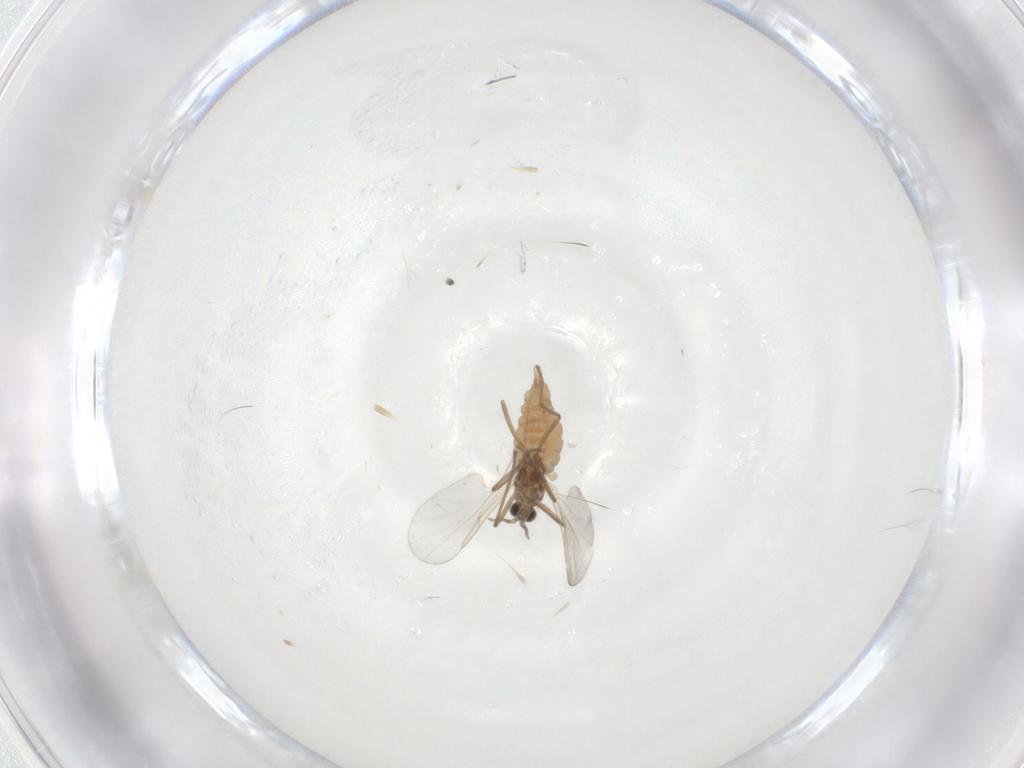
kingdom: Animalia
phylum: Arthropoda
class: Insecta
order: Diptera
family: Cecidomyiidae
